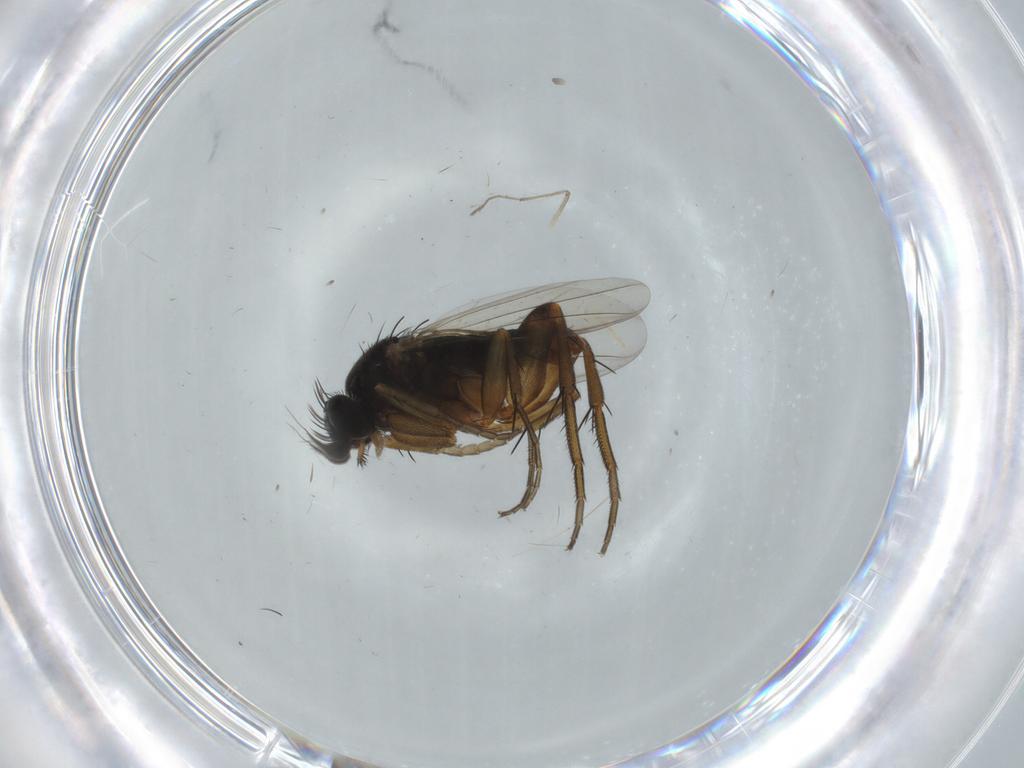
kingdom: Animalia
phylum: Arthropoda
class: Insecta
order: Diptera
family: Phoridae
